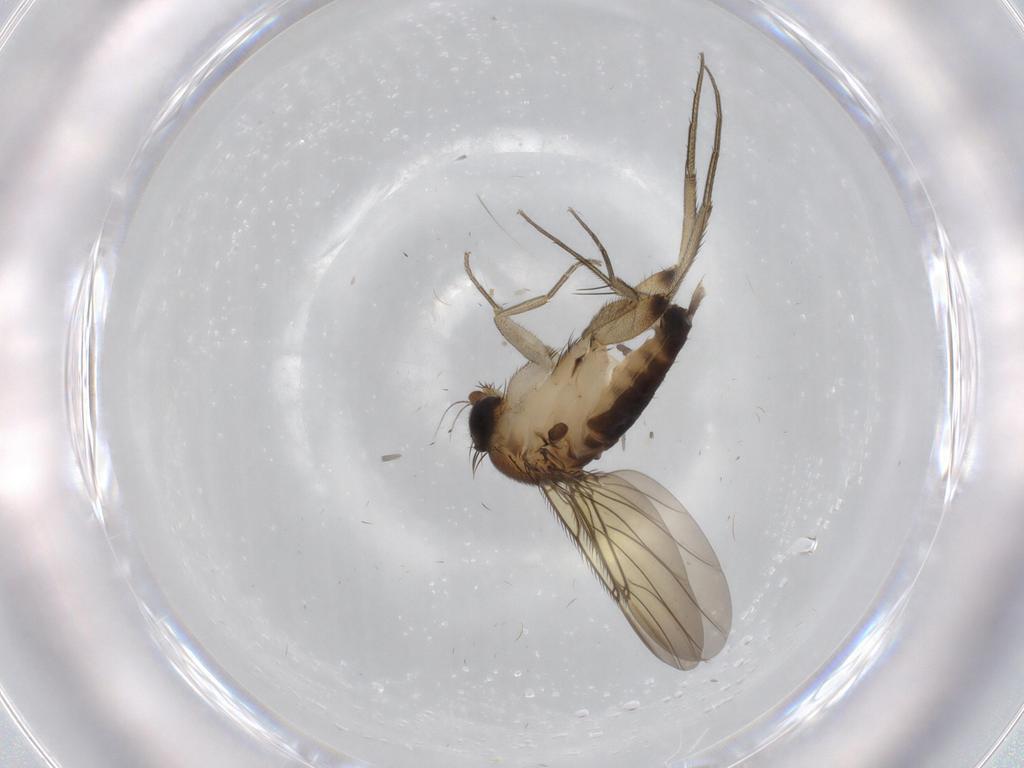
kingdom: Animalia
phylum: Arthropoda
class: Insecta
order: Diptera
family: Phoridae
